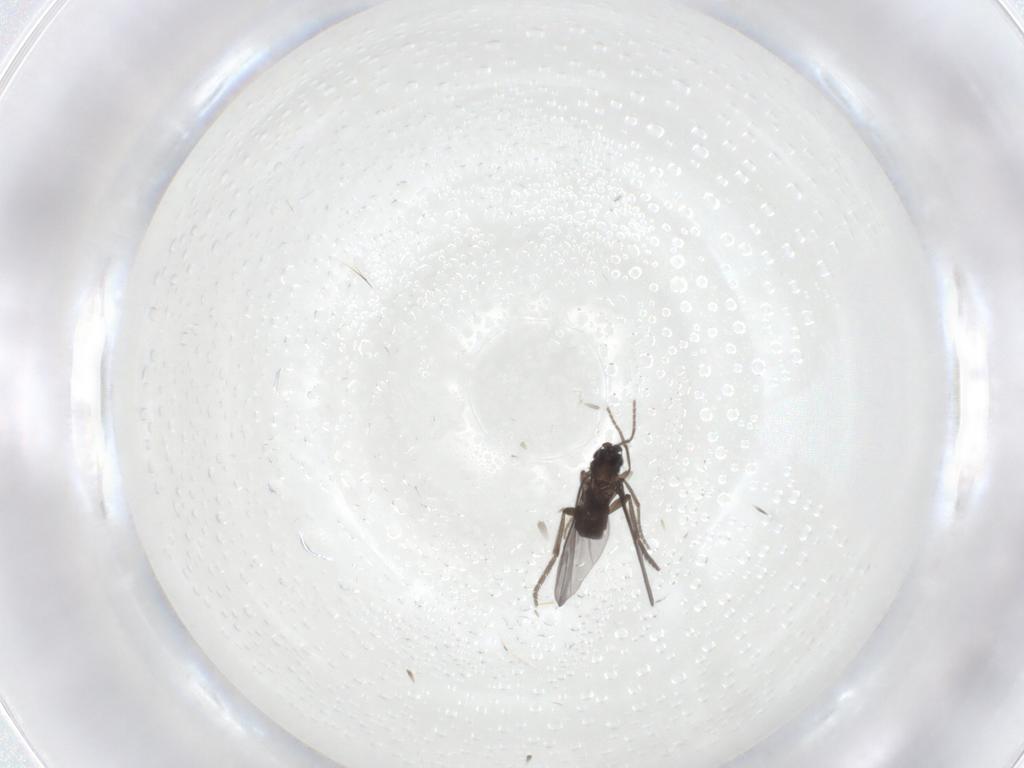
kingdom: Animalia
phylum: Arthropoda
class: Insecta
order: Diptera
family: Phoridae
